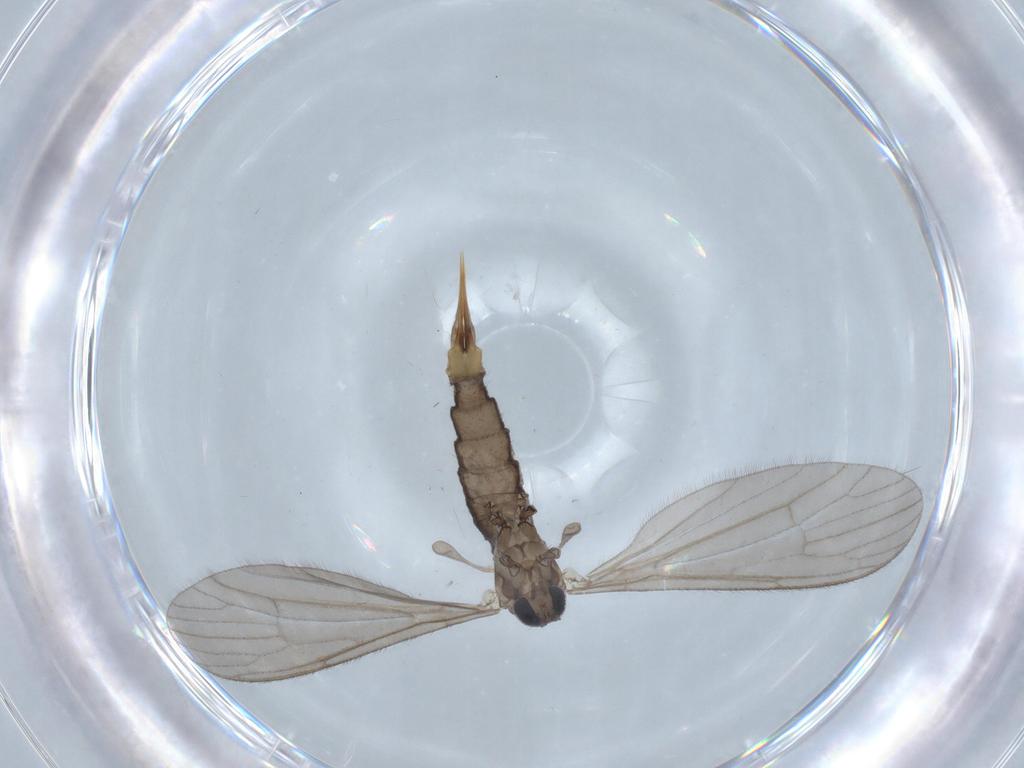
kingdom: Animalia
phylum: Arthropoda
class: Insecta
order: Diptera
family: Limoniidae
